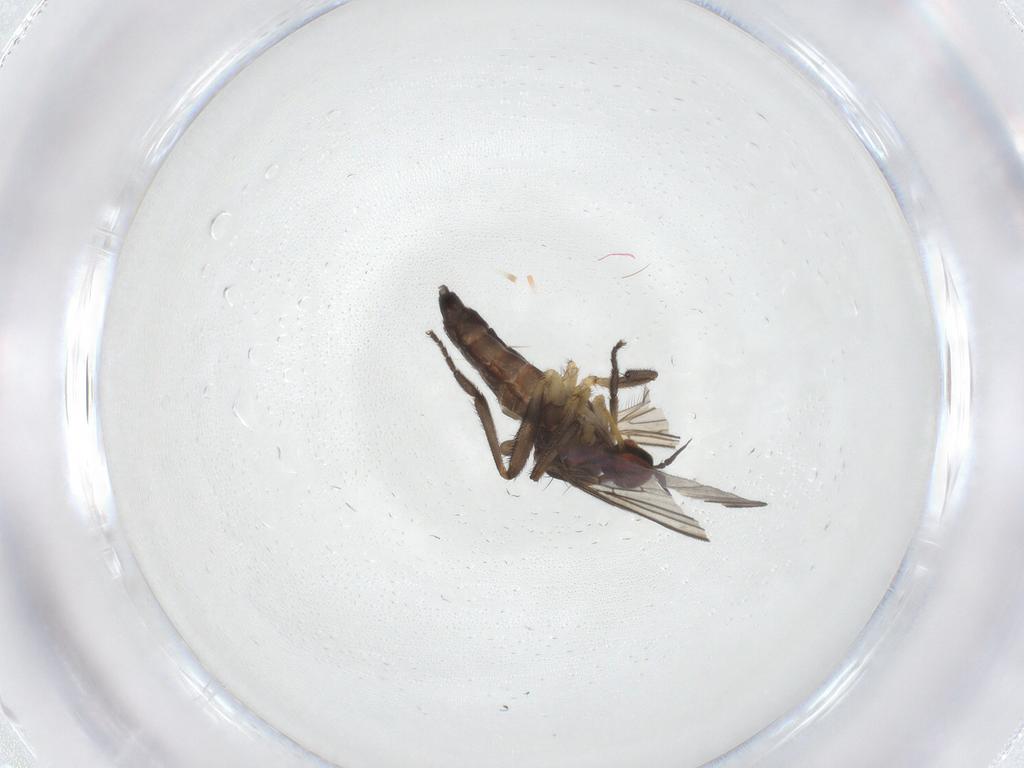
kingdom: Animalia
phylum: Arthropoda
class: Insecta
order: Diptera
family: Empididae
